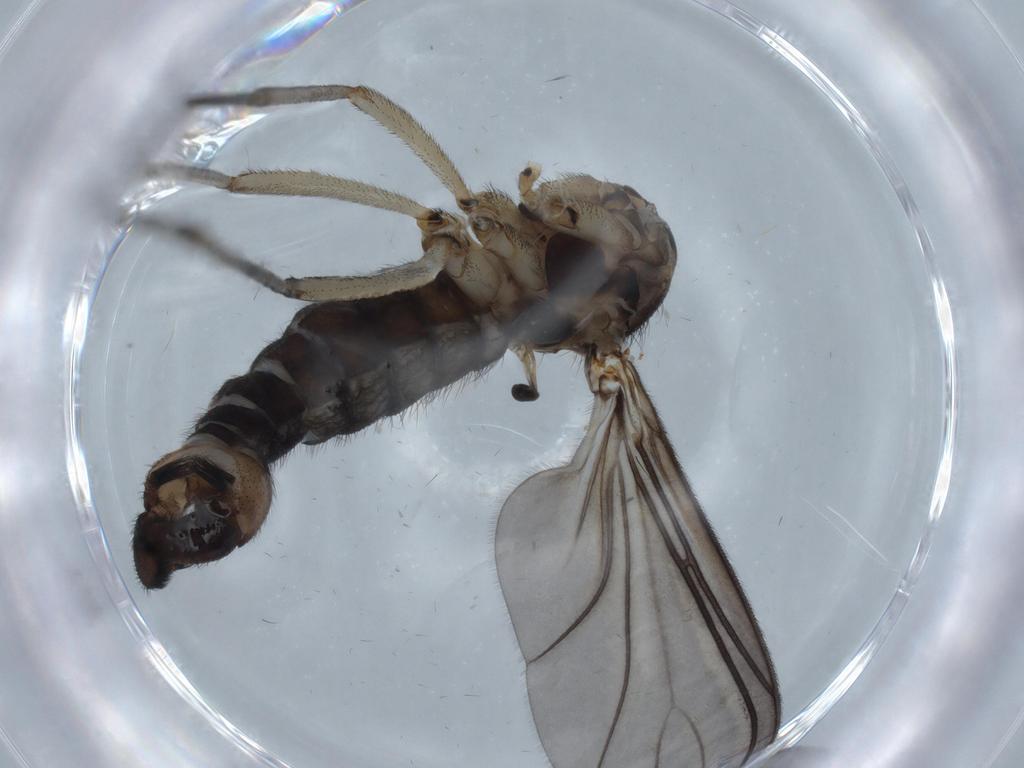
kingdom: Animalia
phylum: Arthropoda
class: Insecta
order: Diptera
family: Sciaridae
